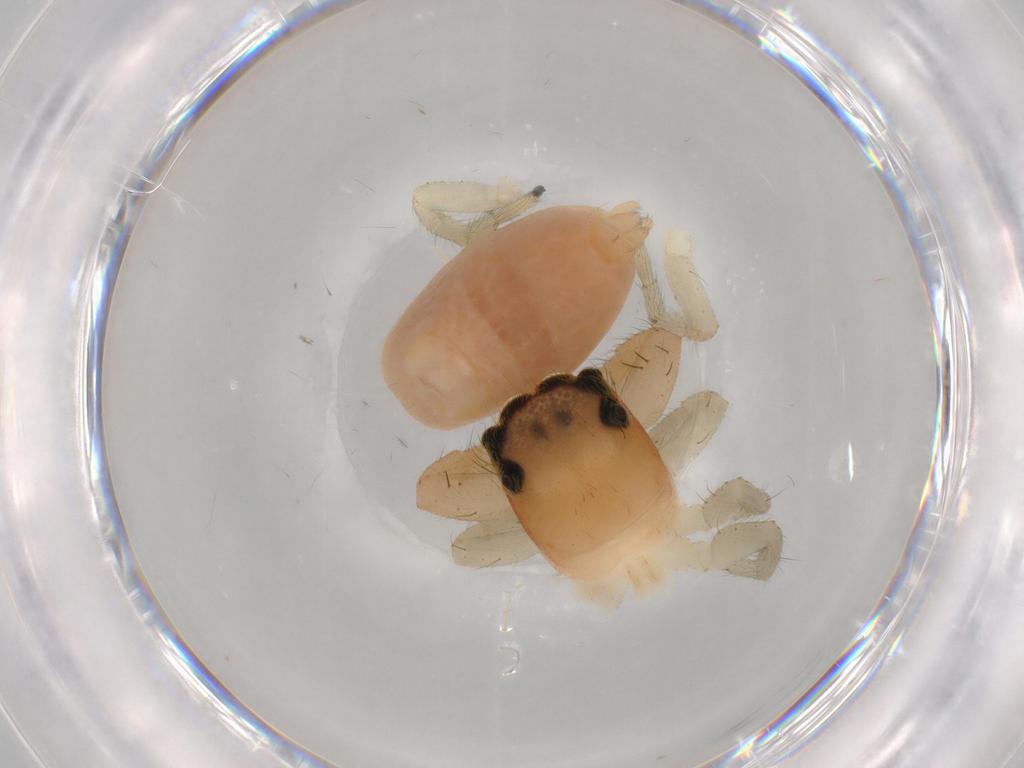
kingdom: Animalia
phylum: Arthropoda
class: Arachnida
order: Araneae
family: Salticidae
